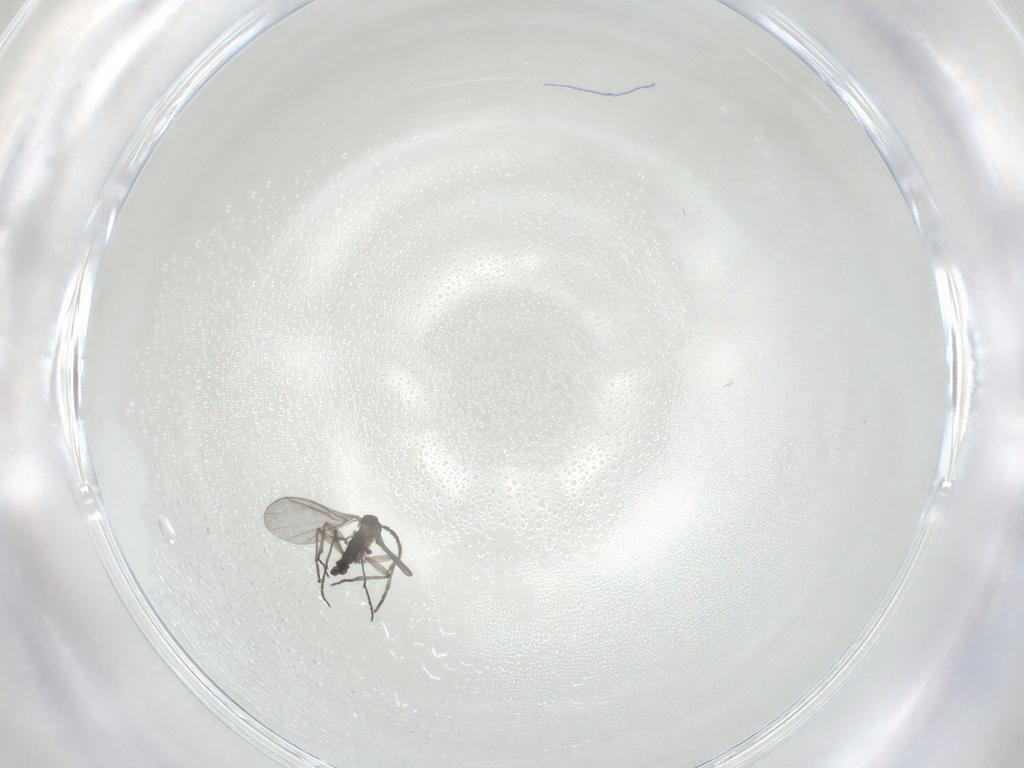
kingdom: Animalia
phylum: Arthropoda
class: Insecta
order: Diptera
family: Sciaridae
